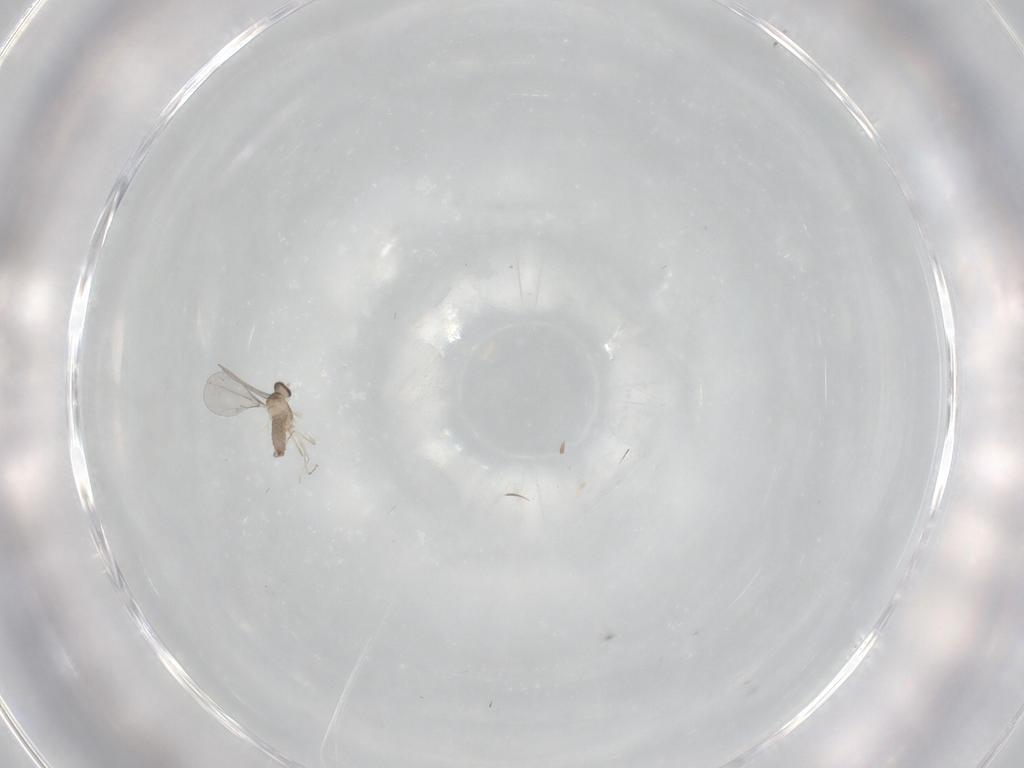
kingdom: Animalia
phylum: Arthropoda
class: Insecta
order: Diptera
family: Cecidomyiidae
